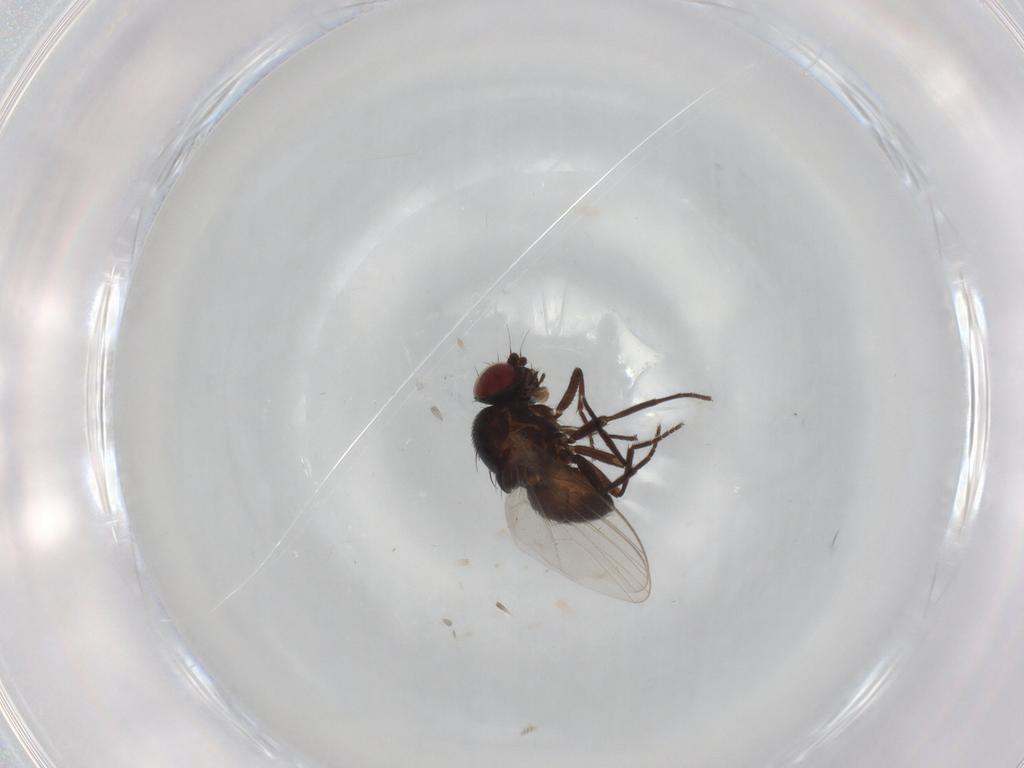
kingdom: Animalia
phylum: Arthropoda
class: Insecta
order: Diptera
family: Agromyzidae
